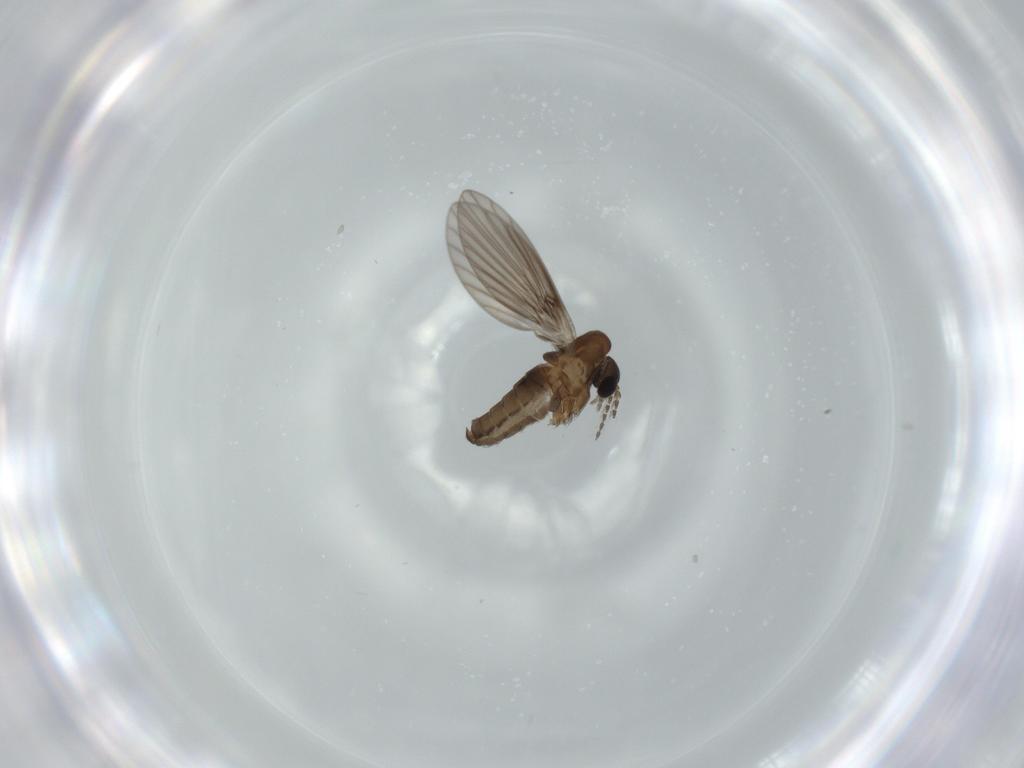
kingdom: Animalia
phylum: Arthropoda
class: Insecta
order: Diptera
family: Psychodidae
